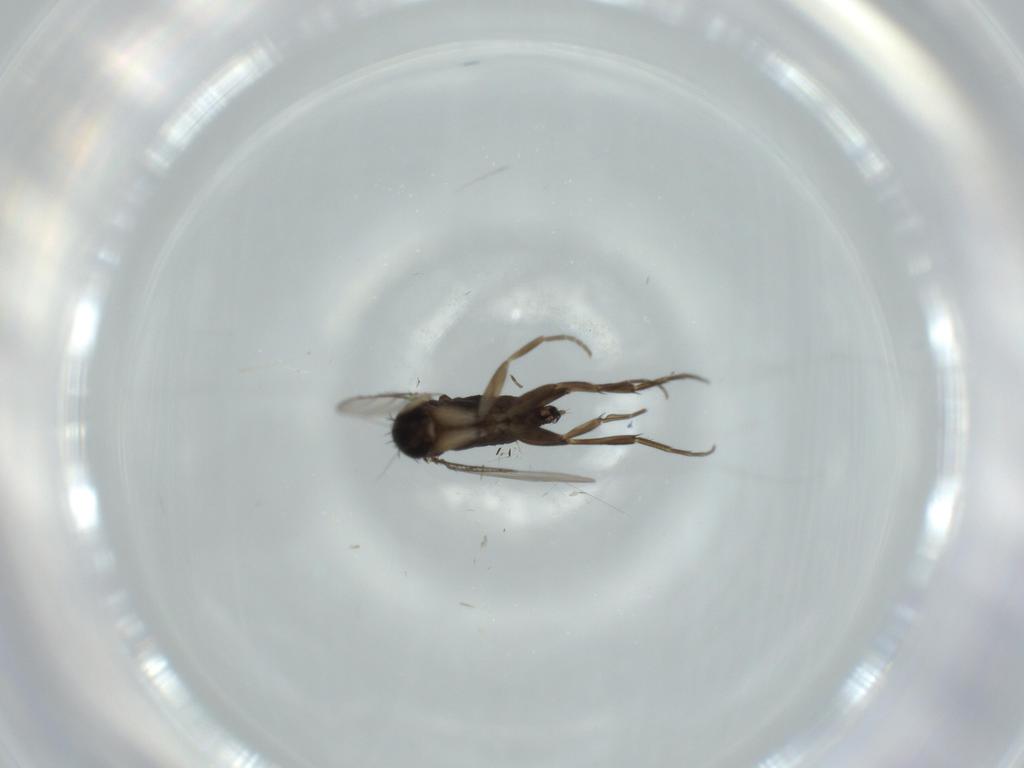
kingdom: Animalia
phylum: Arthropoda
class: Insecta
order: Diptera
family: Phoridae
